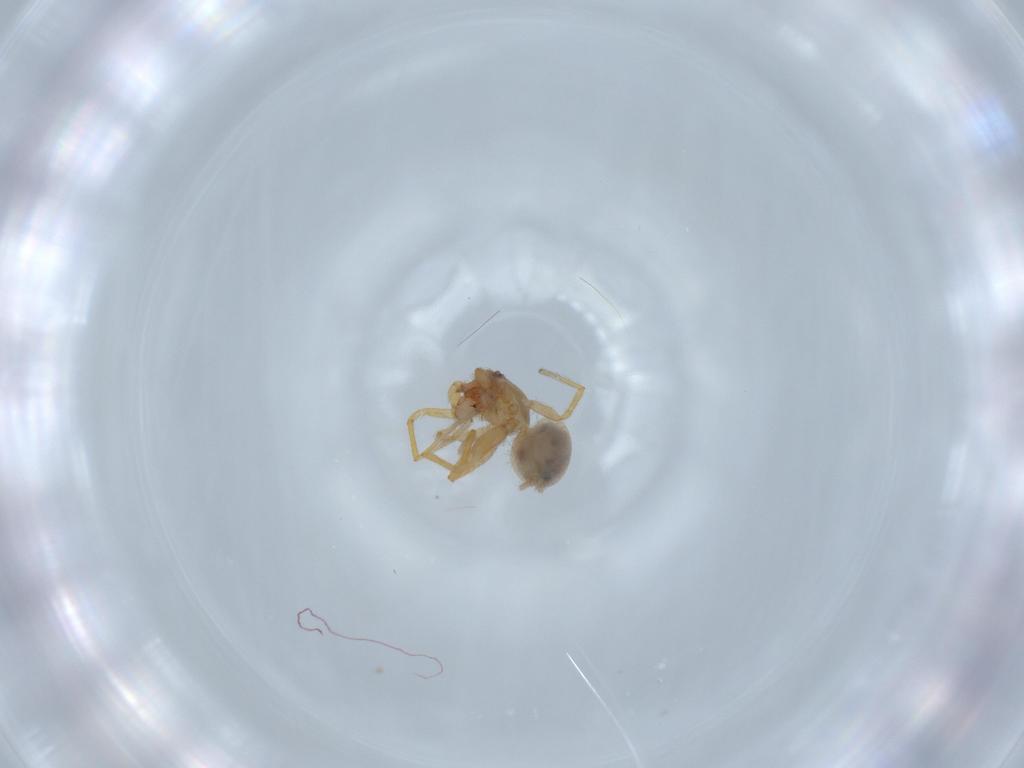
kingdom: Animalia
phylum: Arthropoda
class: Arachnida
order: Araneae
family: Oonopidae
